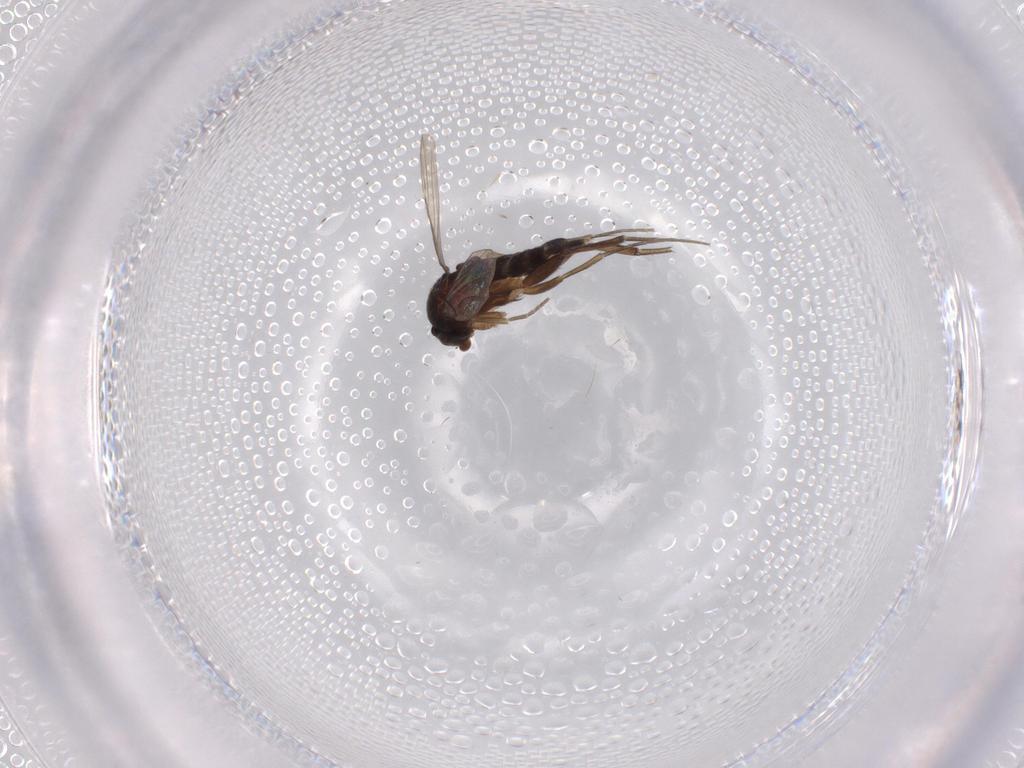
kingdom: Animalia
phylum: Arthropoda
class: Insecta
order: Diptera
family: Phoridae
